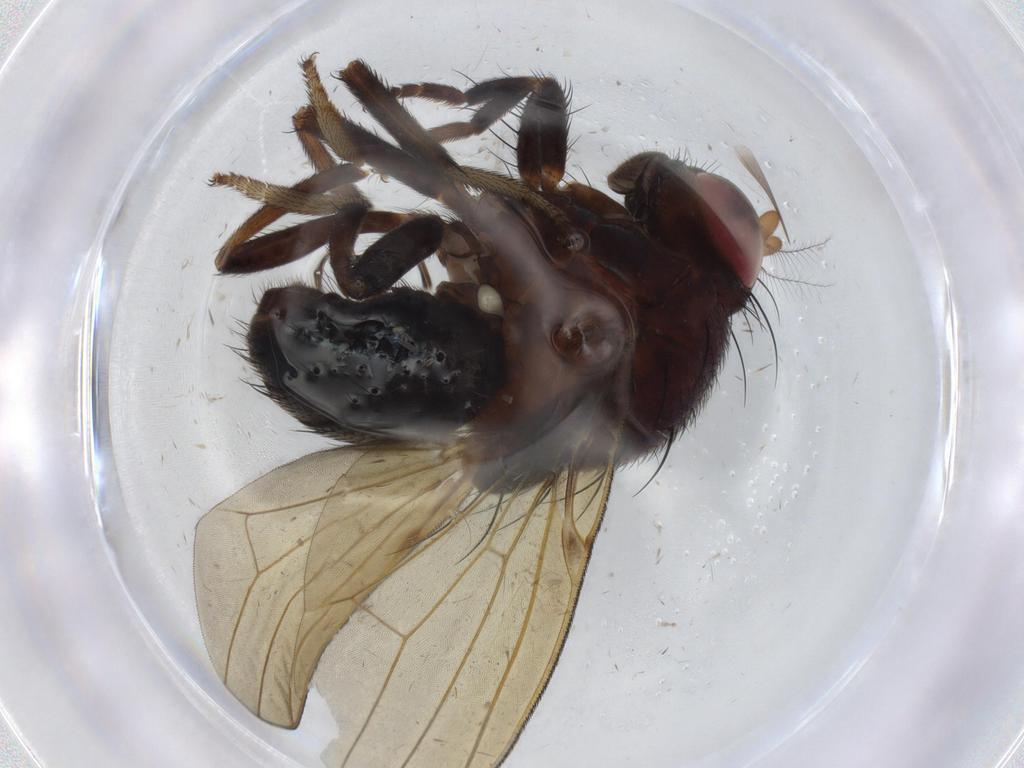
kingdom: Animalia
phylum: Arthropoda
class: Insecta
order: Diptera
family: Lauxaniidae
